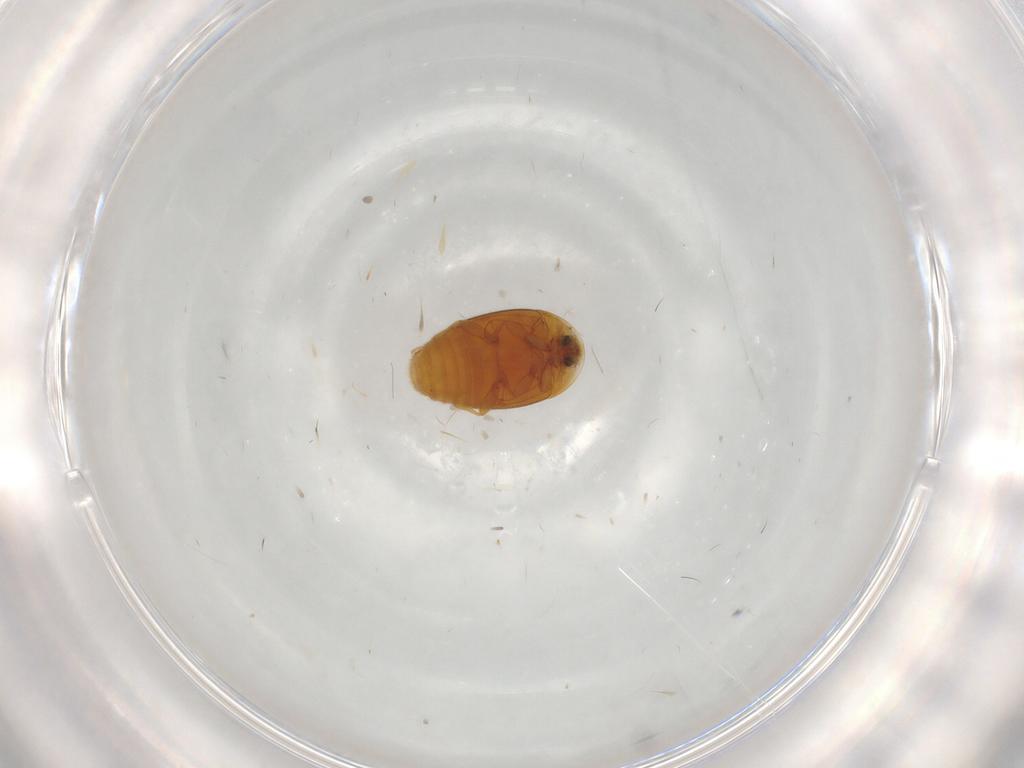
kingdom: Animalia
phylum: Arthropoda
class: Insecta
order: Coleoptera
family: Corylophidae
